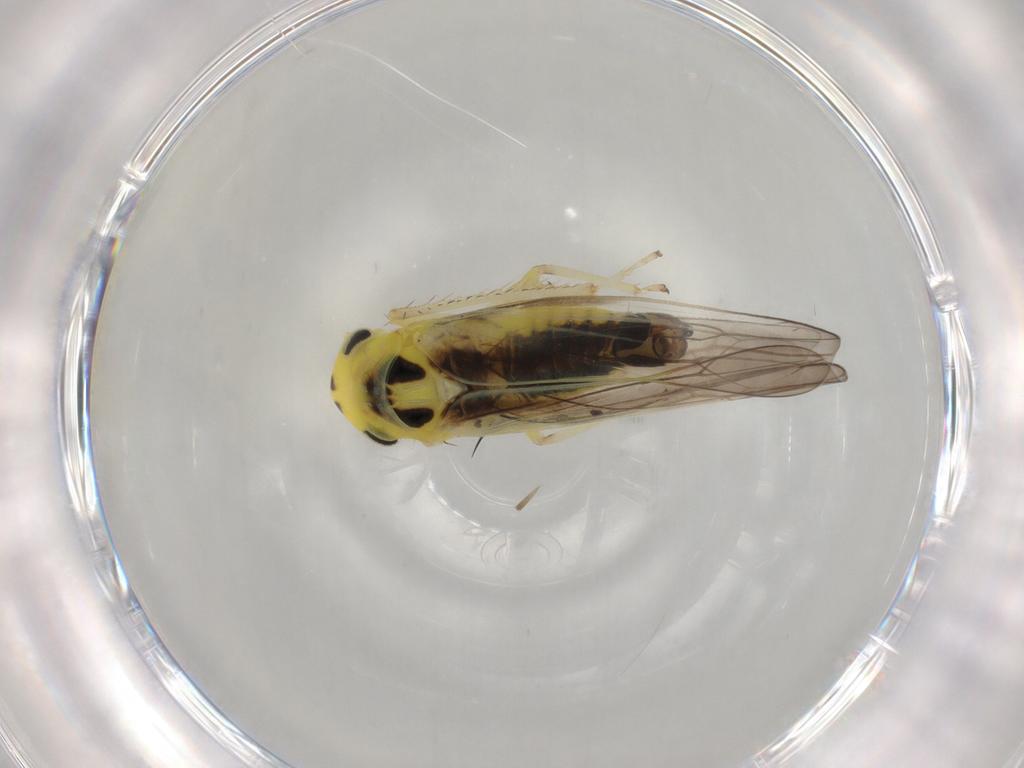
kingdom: Animalia
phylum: Arthropoda
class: Insecta
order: Hemiptera
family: Cicadellidae
